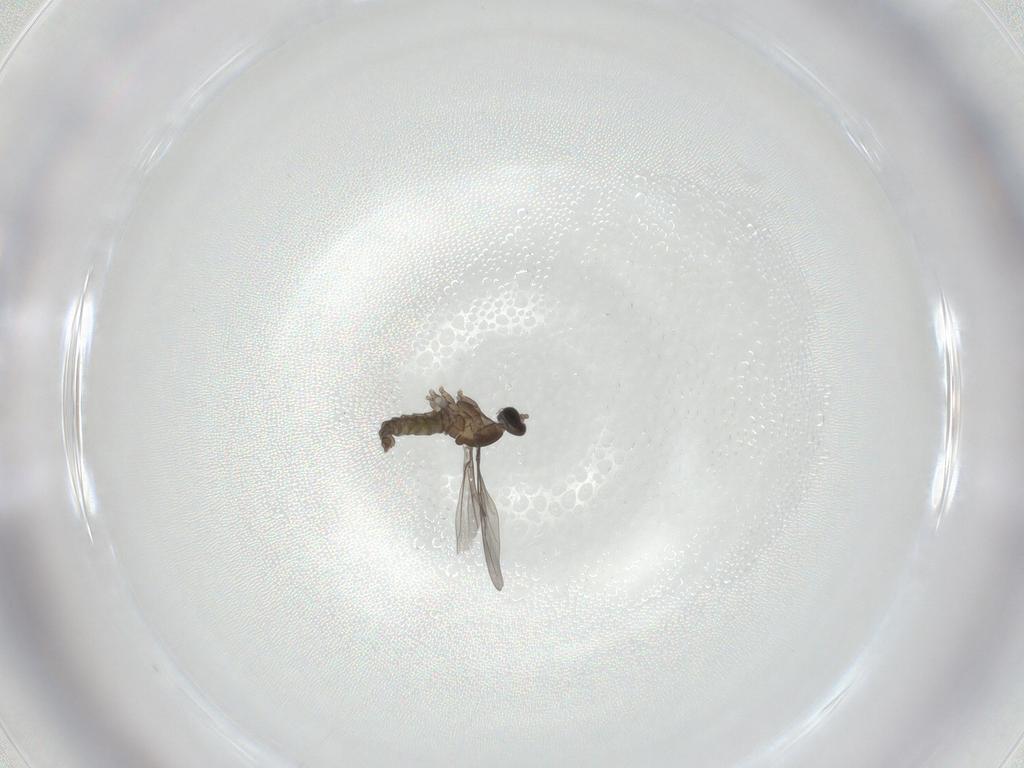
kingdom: Animalia
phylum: Arthropoda
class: Insecta
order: Diptera
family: Cecidomyiidae
